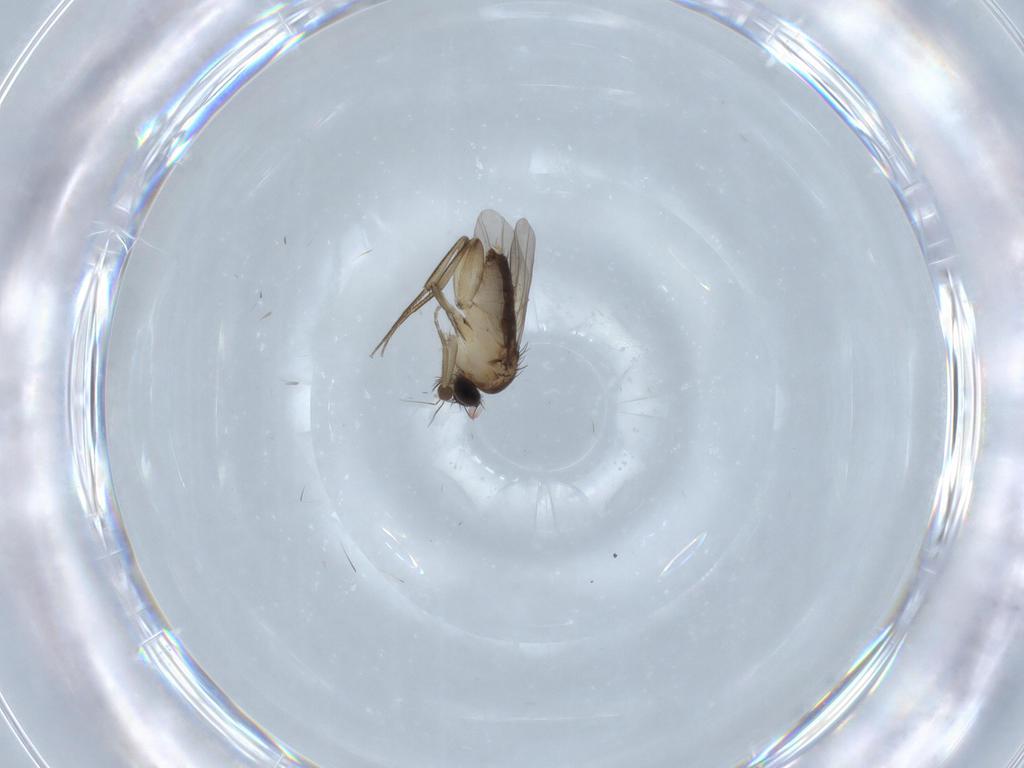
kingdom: Animalia
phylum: Arthropoda
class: Insecta
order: Diptera
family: Phoridae
